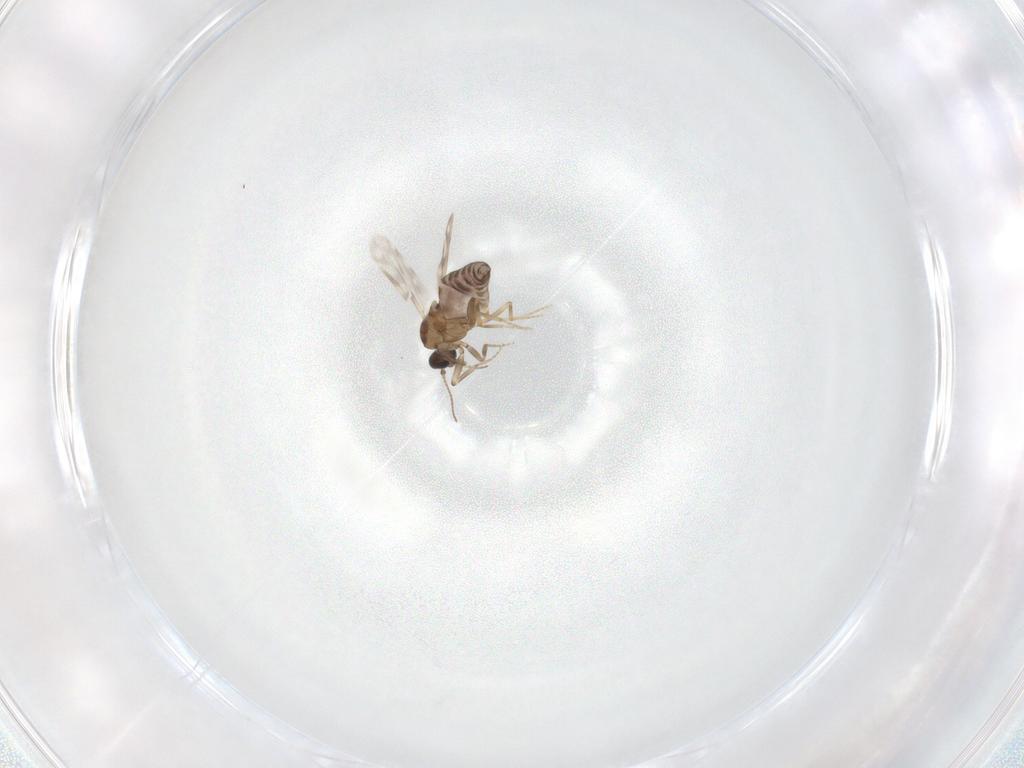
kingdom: Animalia
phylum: Arthropoda
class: Insecta
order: Diptera
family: Ceratopogonidae
